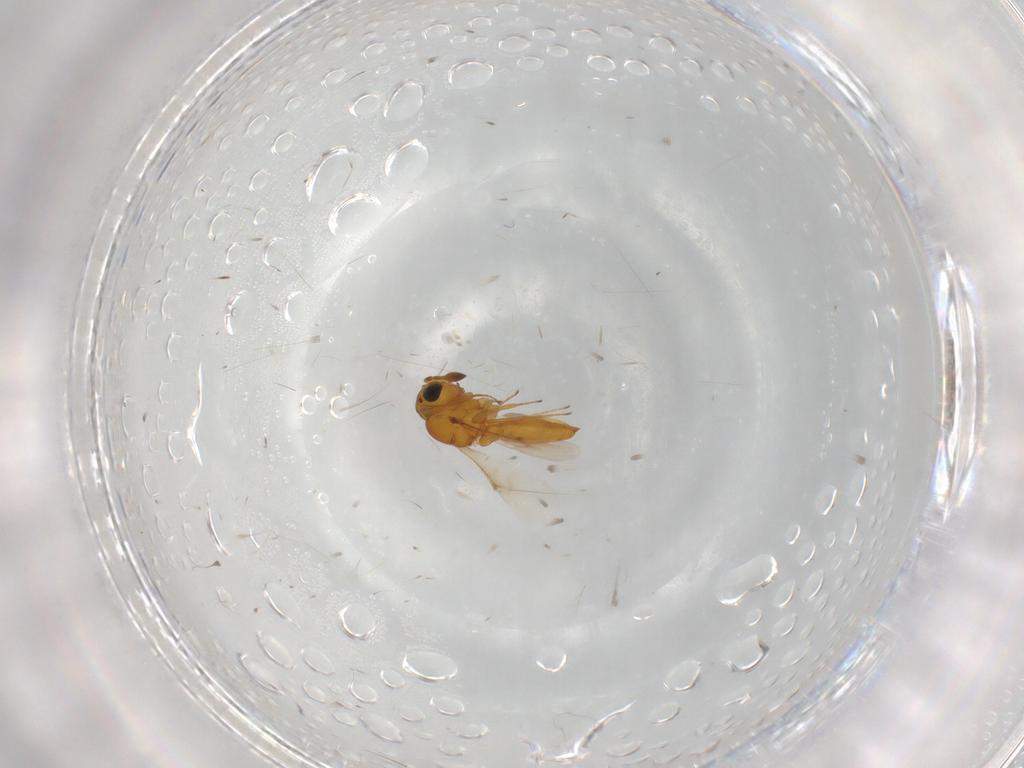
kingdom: Animalia
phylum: Arthropoda
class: Insecta
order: Hymenoptera
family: Scelionidae
